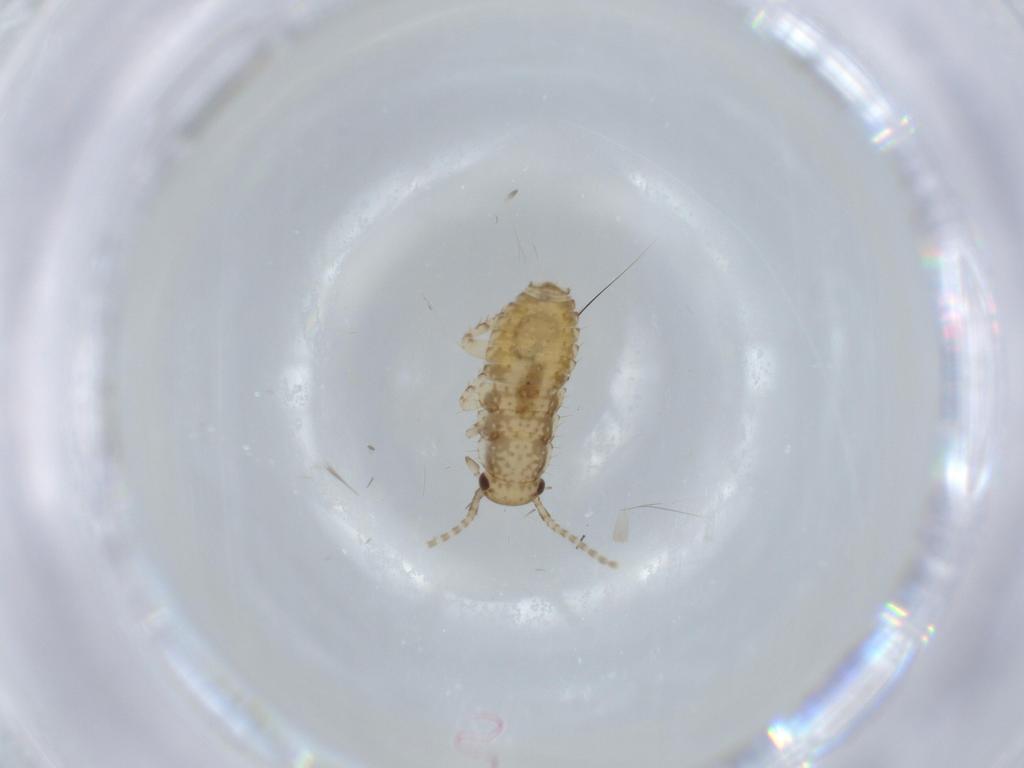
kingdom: Animalia
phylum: Arthropoda
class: Insecta
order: Blattodea
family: Ectobiidae
